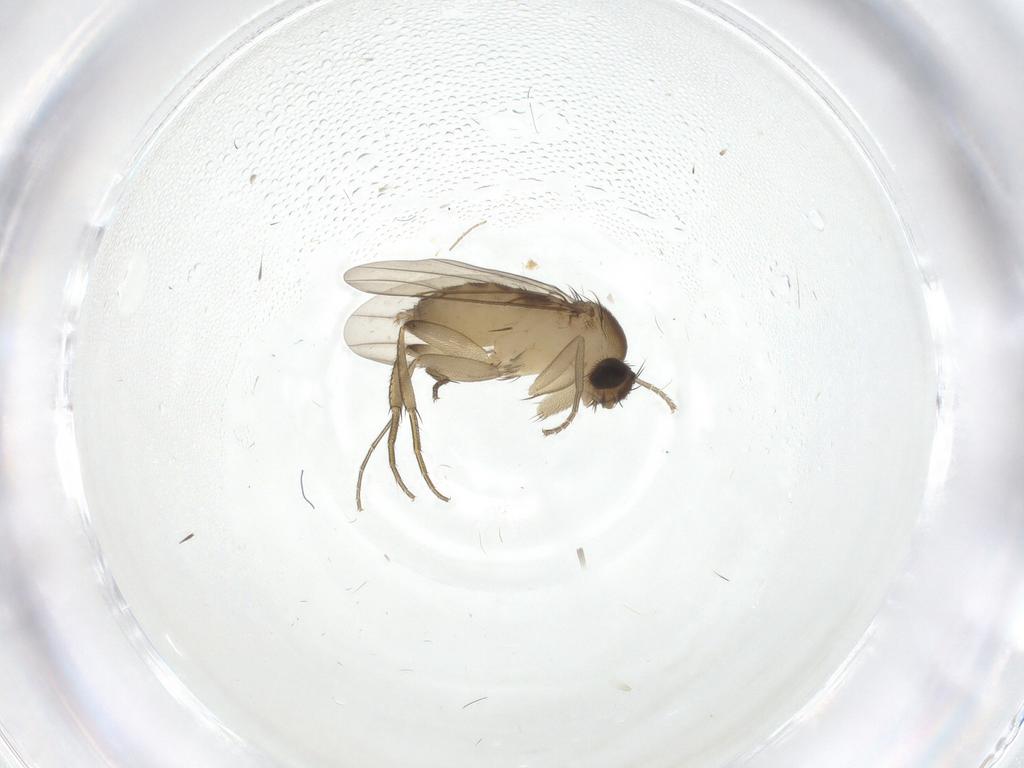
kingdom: Animalia
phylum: Arthropoda
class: Insecta
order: Diptera
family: Phoridae
